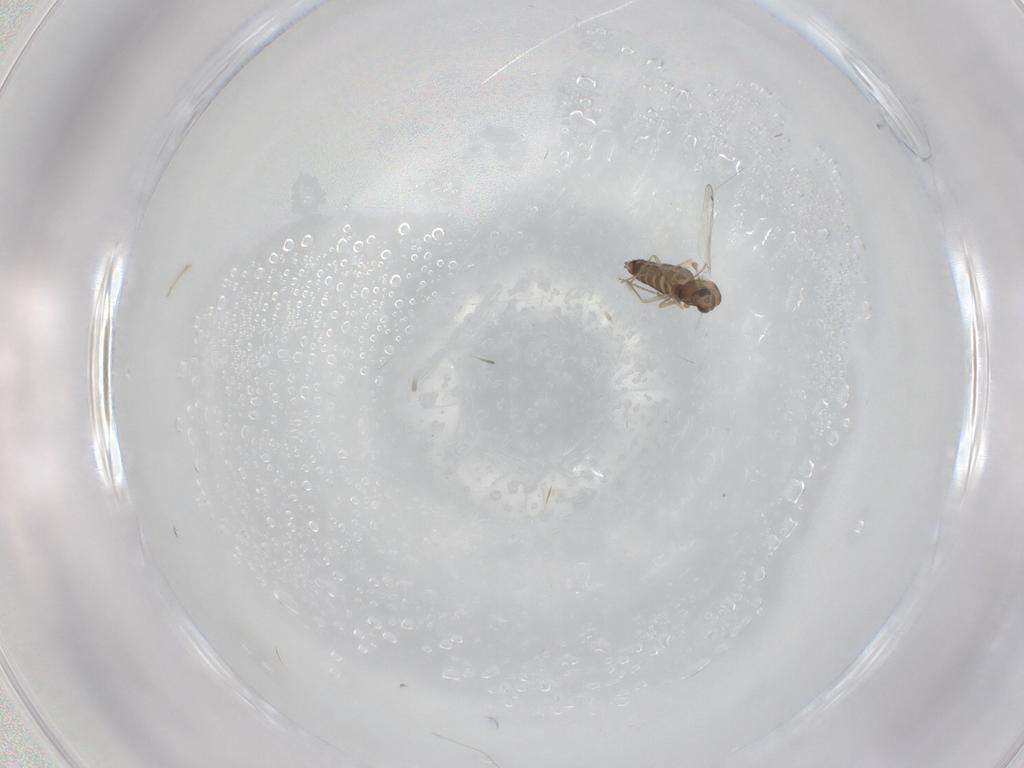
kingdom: Animalia
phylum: Arthropoda
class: Insecta
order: Diptera
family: Chironomidae
